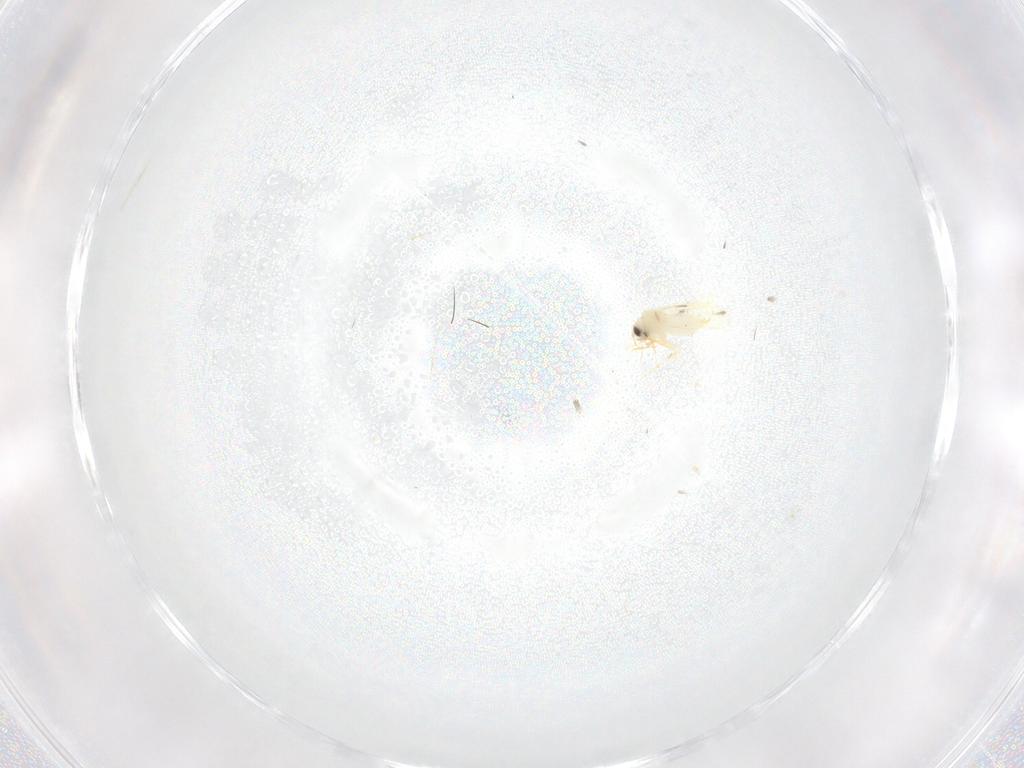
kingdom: Animalia
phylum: Arthropoda
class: Insecta
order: Hemiptera
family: Aleyrodidae
